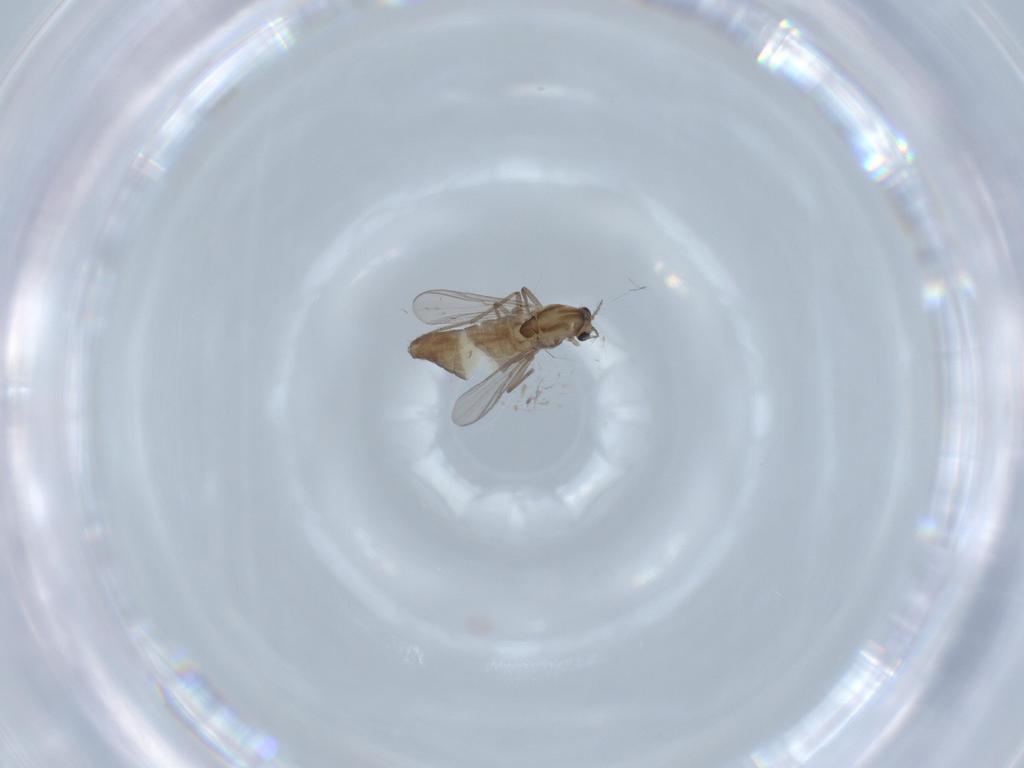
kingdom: Animalia
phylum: Arthropoda
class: Insecta
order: Diptera
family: Chironomidae
